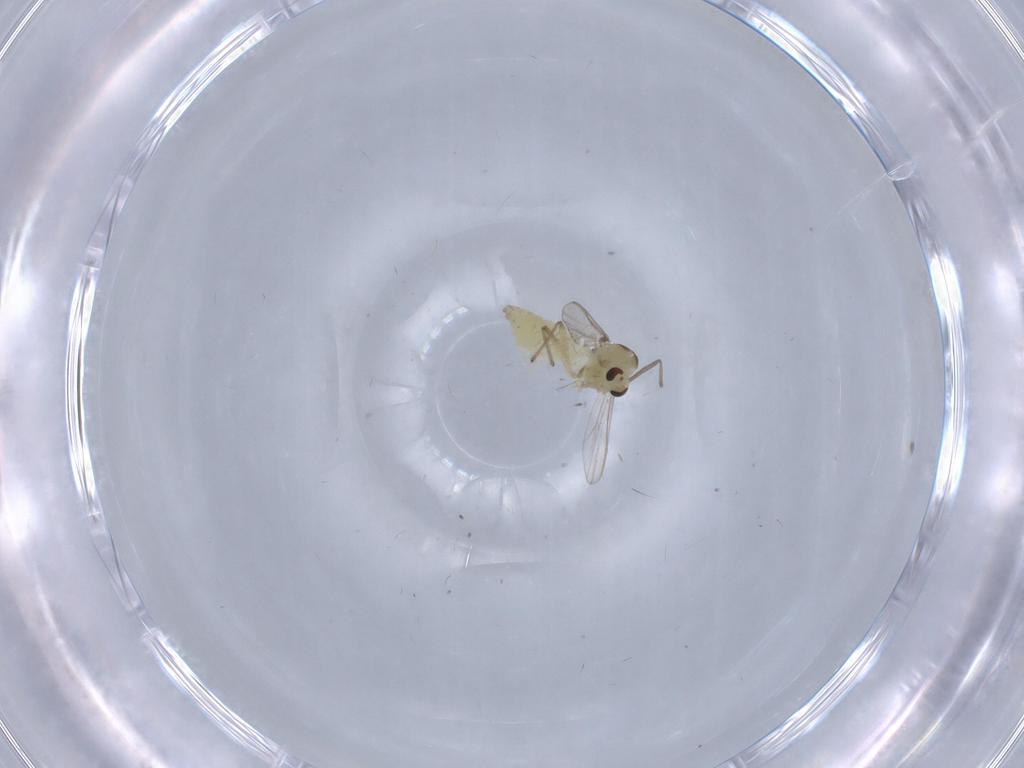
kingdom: Animalia
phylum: Arthropoda
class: Insecta
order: Diptera
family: Chironomidae
